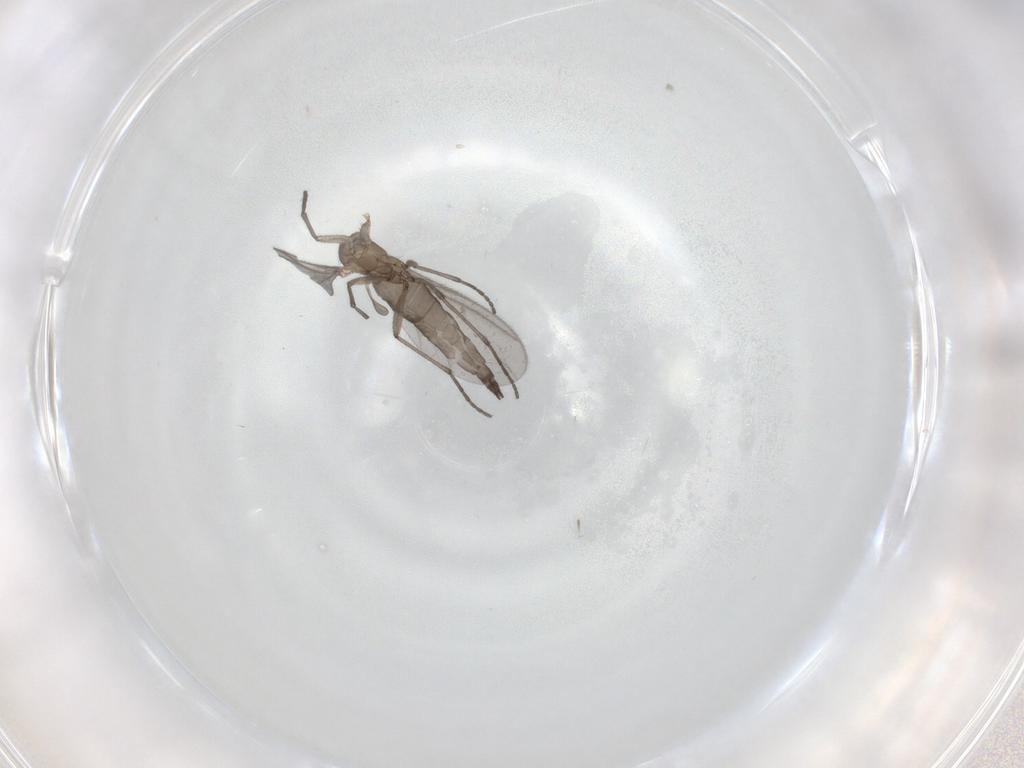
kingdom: Animalia
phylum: Arthropoda
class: Insecta
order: Diptera
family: Sciaridae
